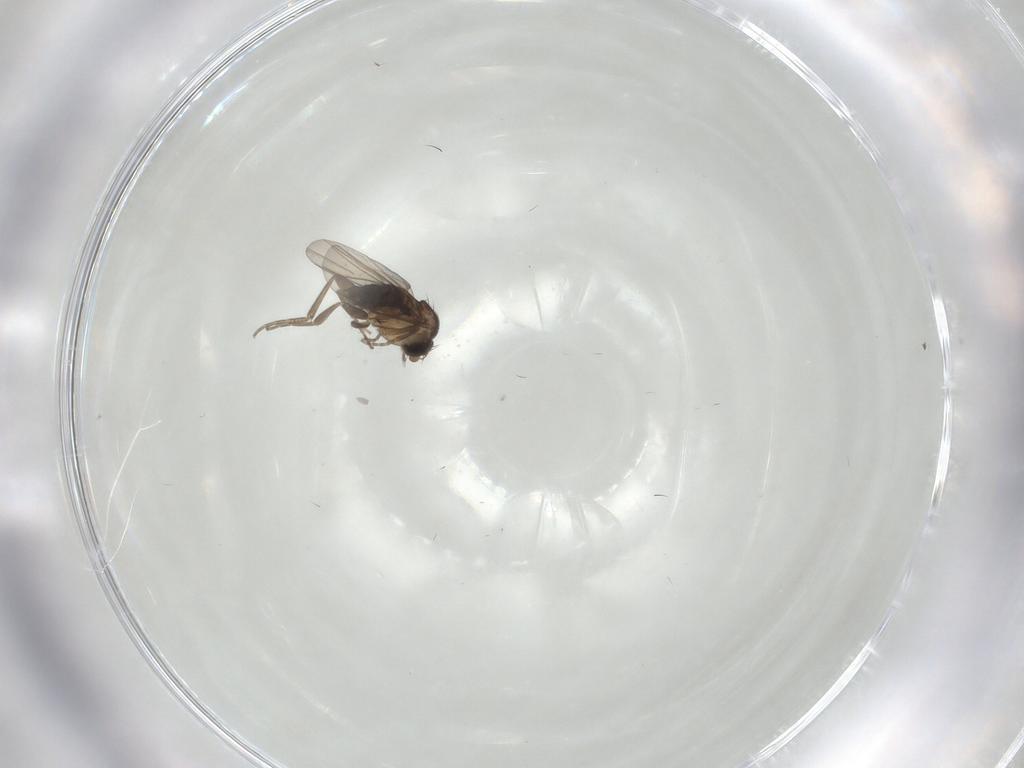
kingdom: Animalia
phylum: Arthropoda
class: Insecta
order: Diptera
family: Phoridae
